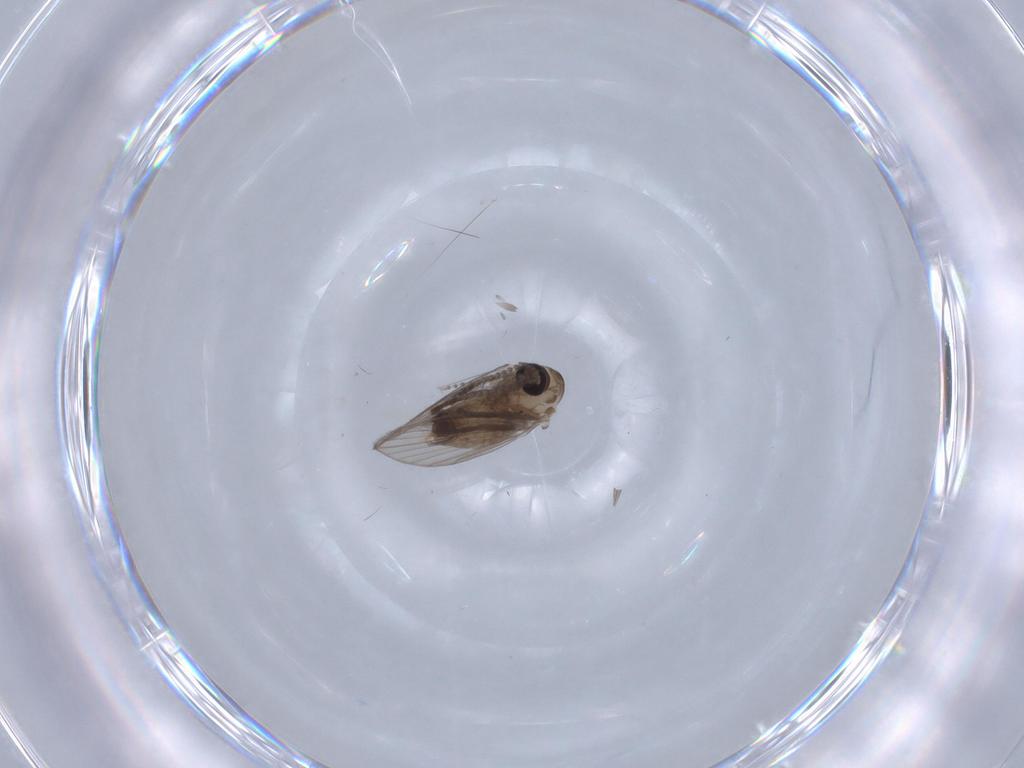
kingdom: Animalia
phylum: Arthropoda
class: Insecta
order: Diptera
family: Psychodidae
